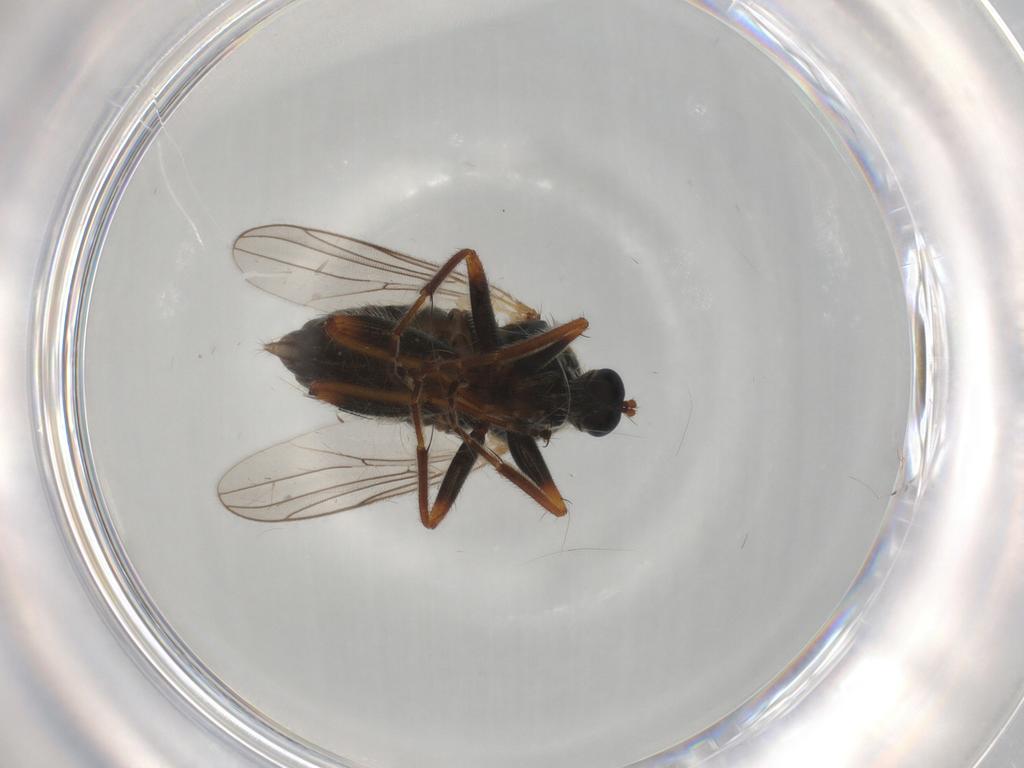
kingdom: Animalia
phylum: Arthropoda
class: Insecta
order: Diptera
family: Hybotidae
